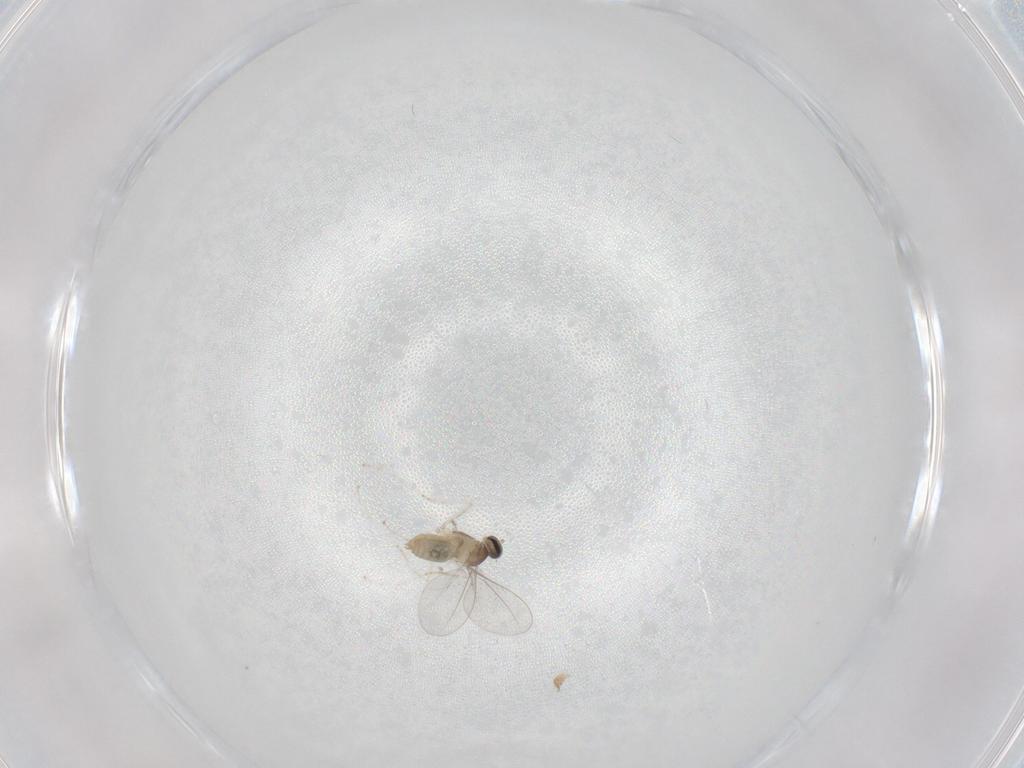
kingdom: Animalia
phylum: Arthropoda
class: Insecta
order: Diptera
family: Cecidomyiidae
